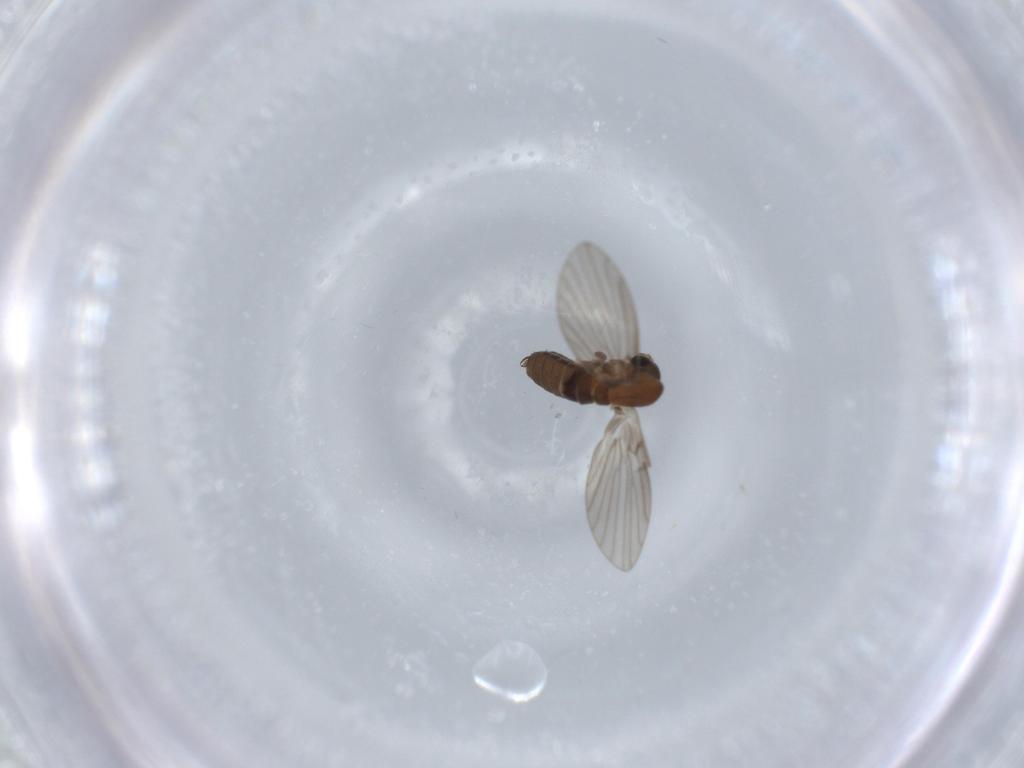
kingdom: Animalia
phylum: Arthropoda
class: Insecta
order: Diptera
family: Psychodidae
